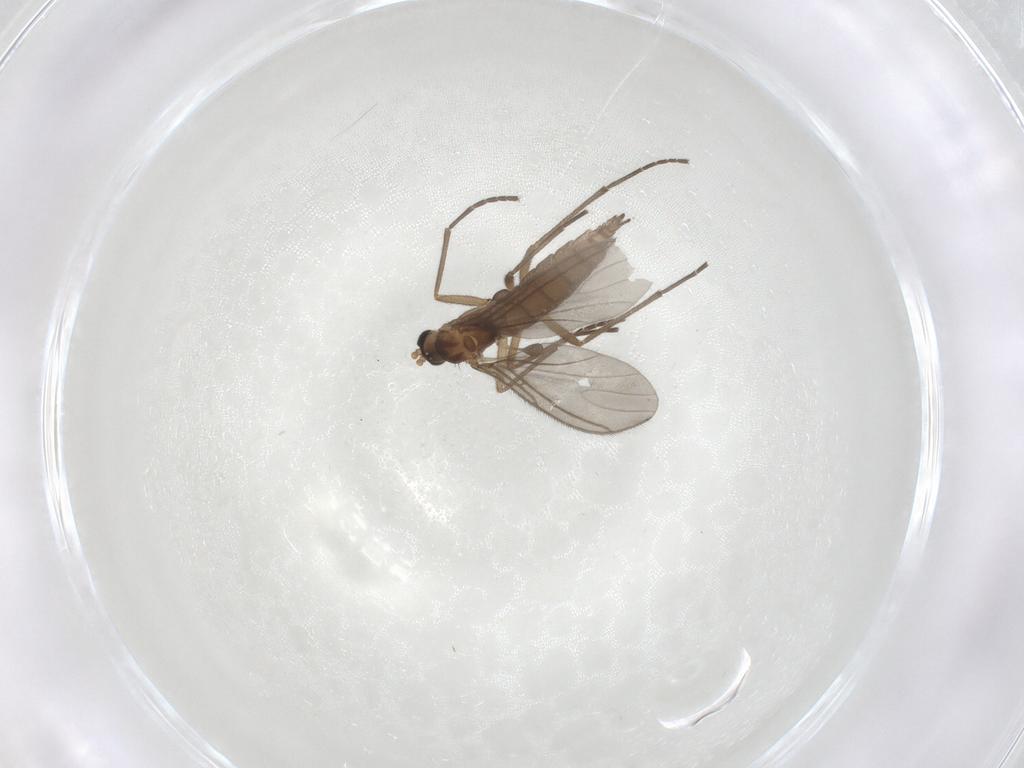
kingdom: Animalia
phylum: Arthropoda
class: Insecta
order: Diptera
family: Sciaridae
